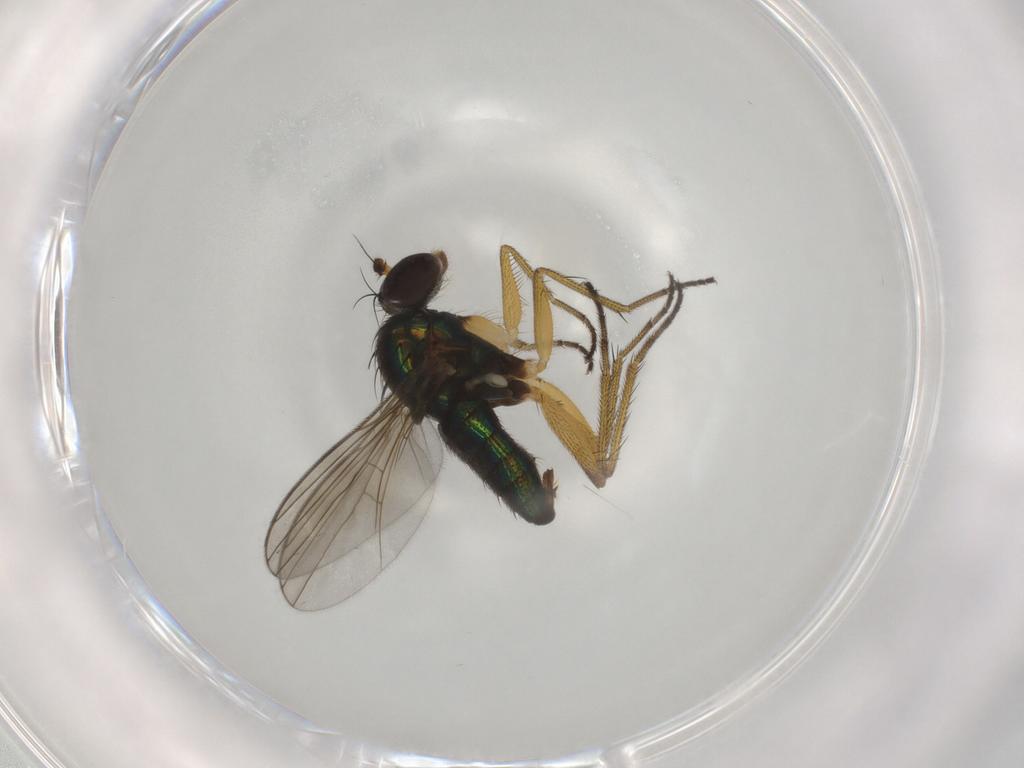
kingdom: Animalia
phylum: Arthropoda
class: Insecta
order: Diptera
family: Dolichopodidae
